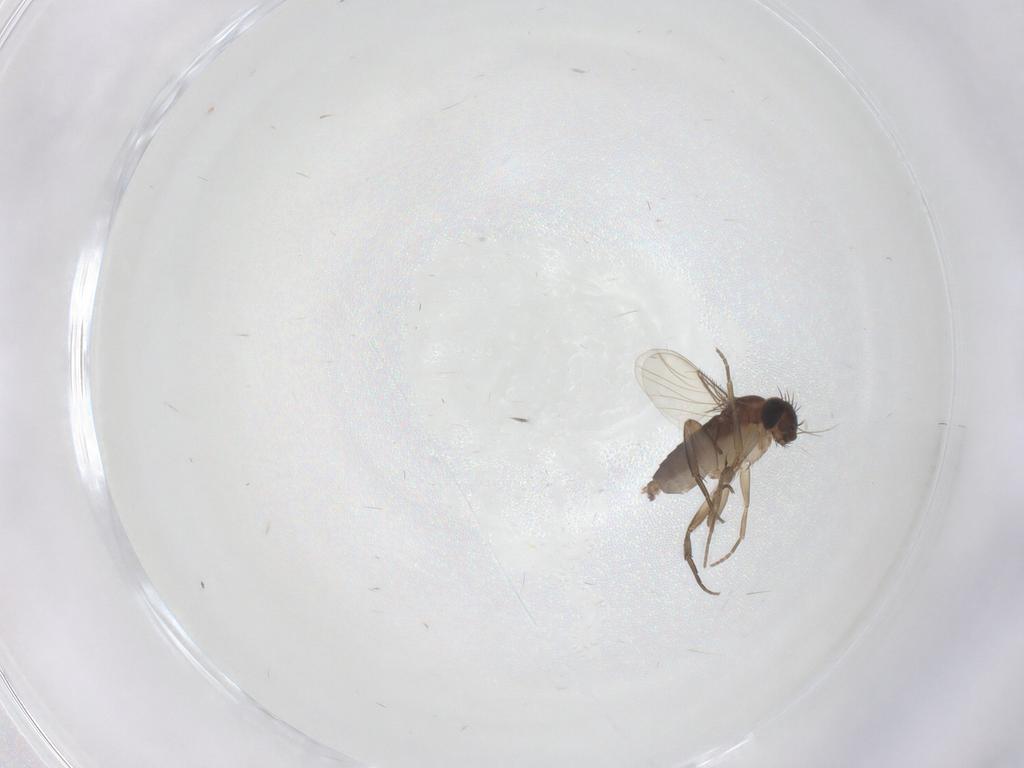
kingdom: Animalia
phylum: Arthropoda
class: Insecta
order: Diptera
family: Phoridae
